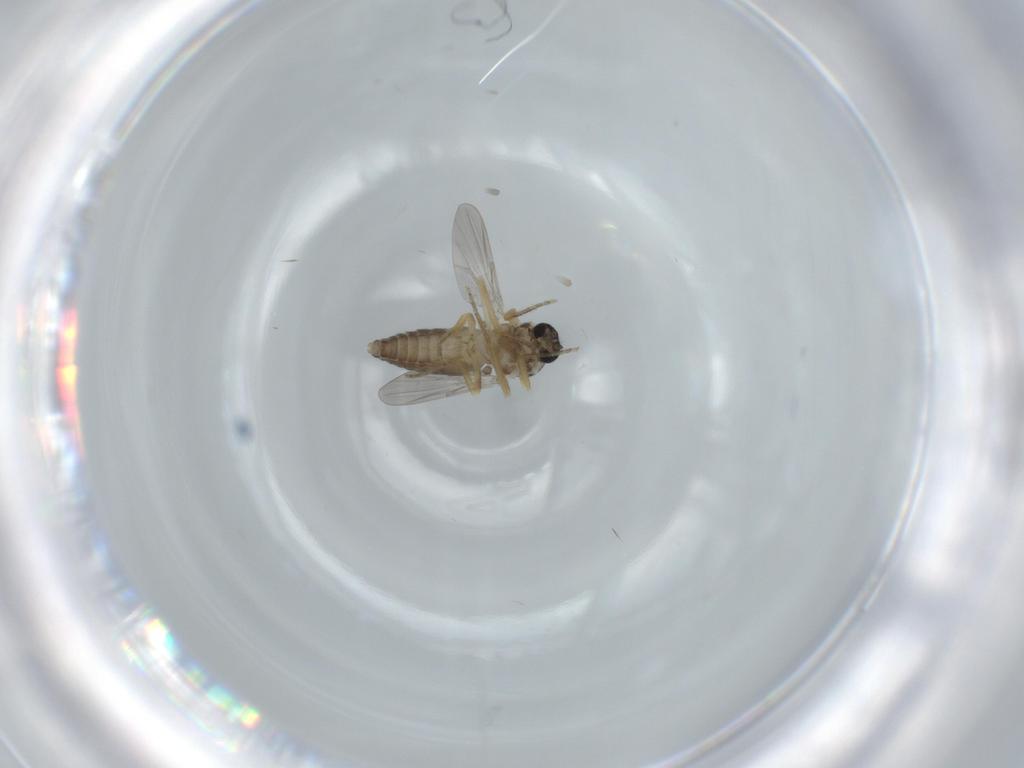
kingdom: Animalia
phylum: Arthropoda
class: Insecta
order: Diptera
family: Ceratopogonidae
